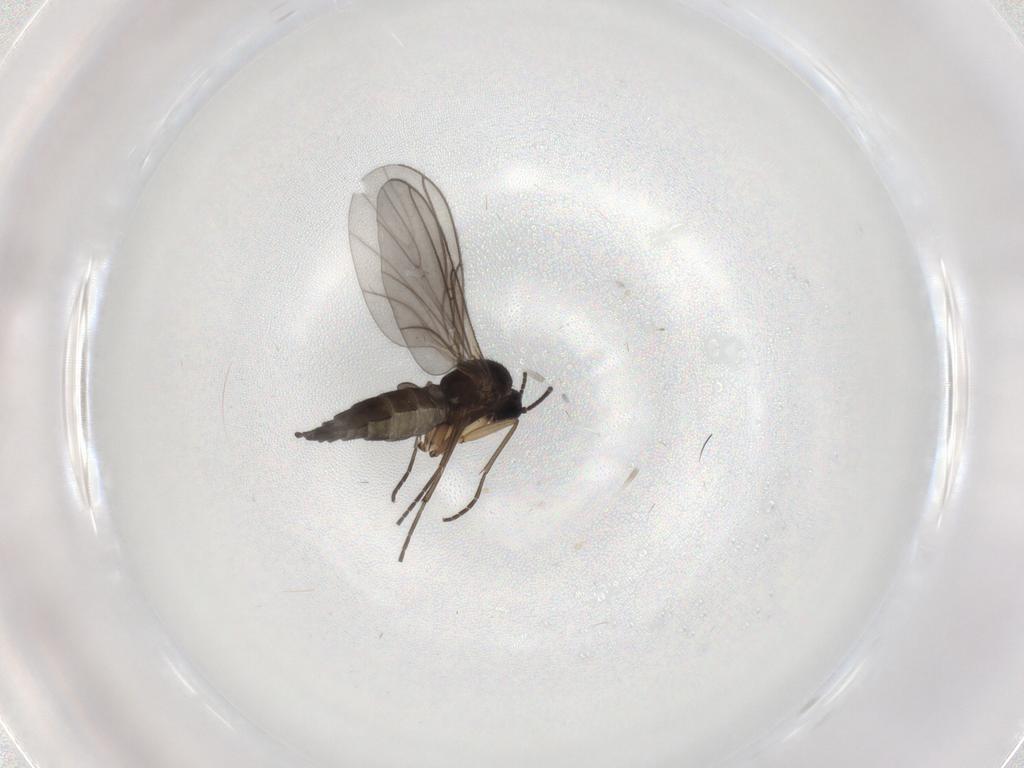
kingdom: Animalia
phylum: Arthropoda
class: Insecta
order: Diptera
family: Sciaridae
